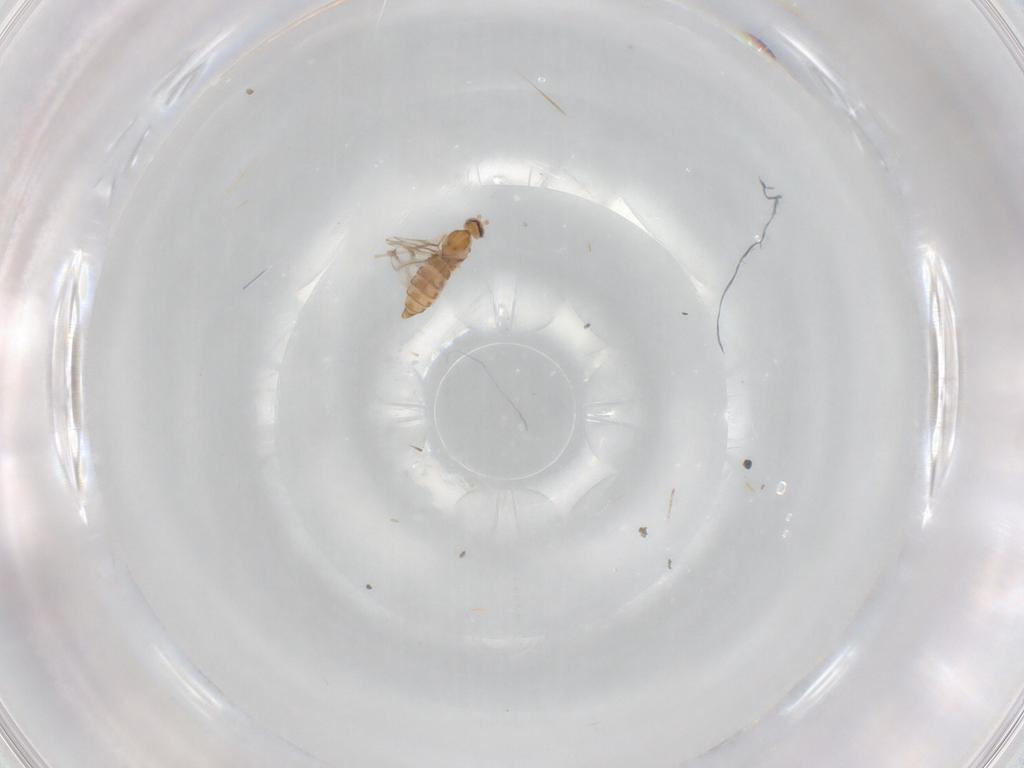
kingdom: Animalia
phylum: Arthropoda
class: Insecta
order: Diptera
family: Cecidomyiidae
